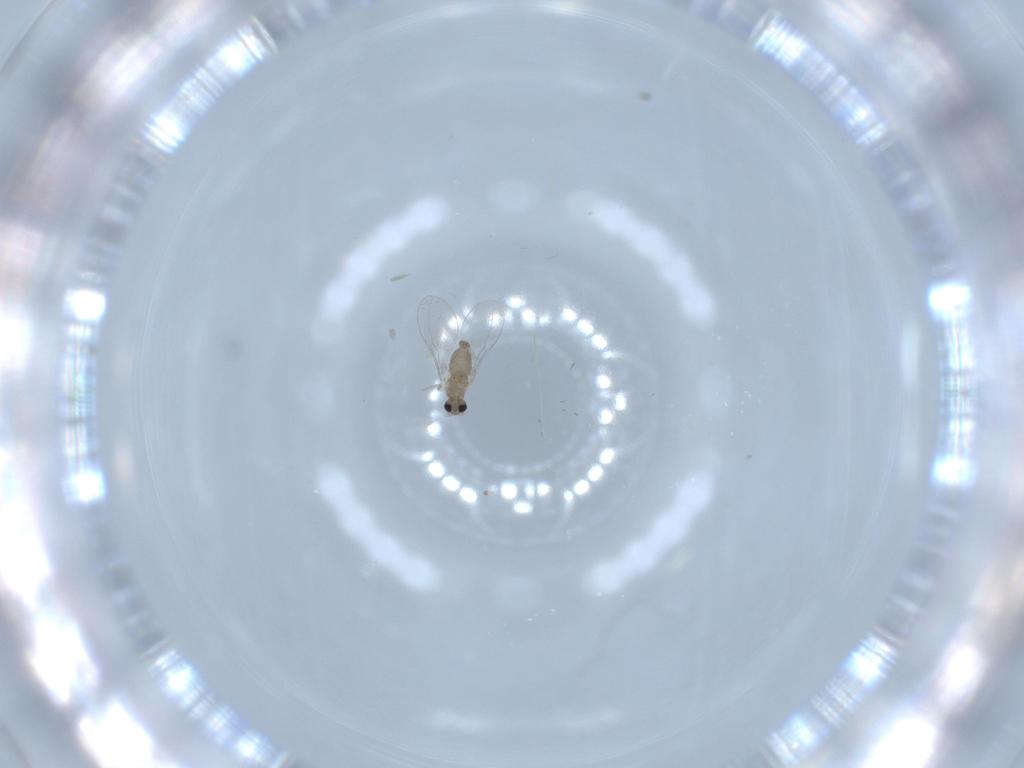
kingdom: Animalia
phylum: Arthropoda
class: Insecta
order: Diptera
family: Cecidomyiidae
